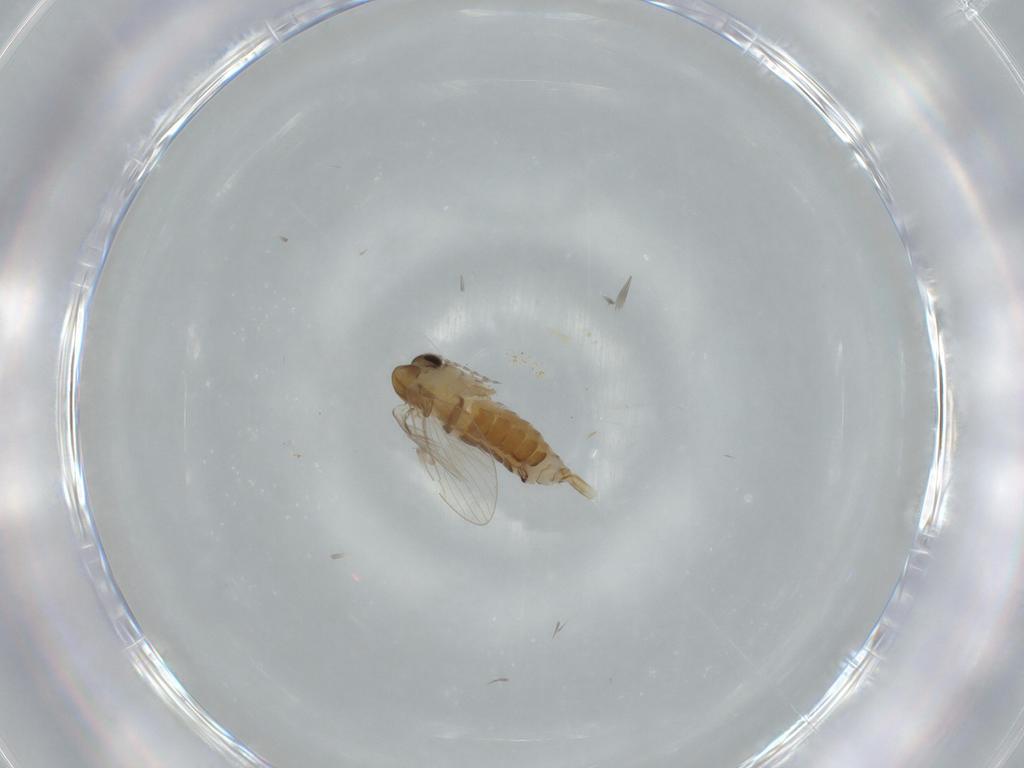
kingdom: Animalia
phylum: Arthropoda
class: Insecta
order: Diptera
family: Psychodidae
